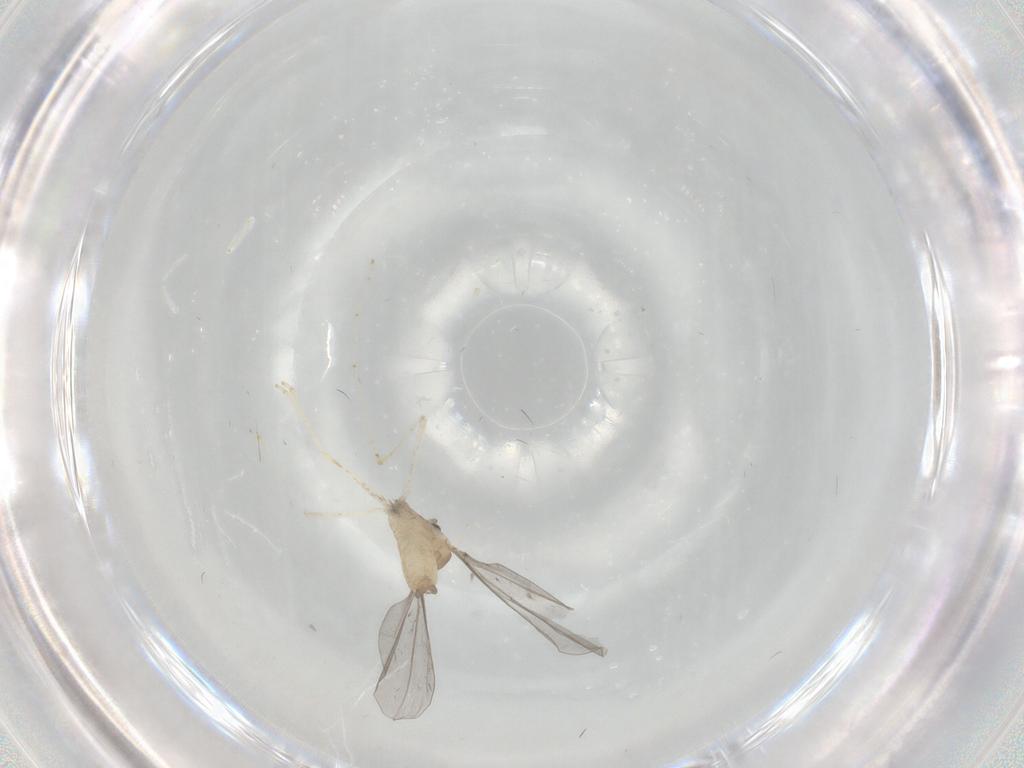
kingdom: Animalia
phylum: Arthropoda
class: Insecta
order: Diptera
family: Cecidomyiidae
